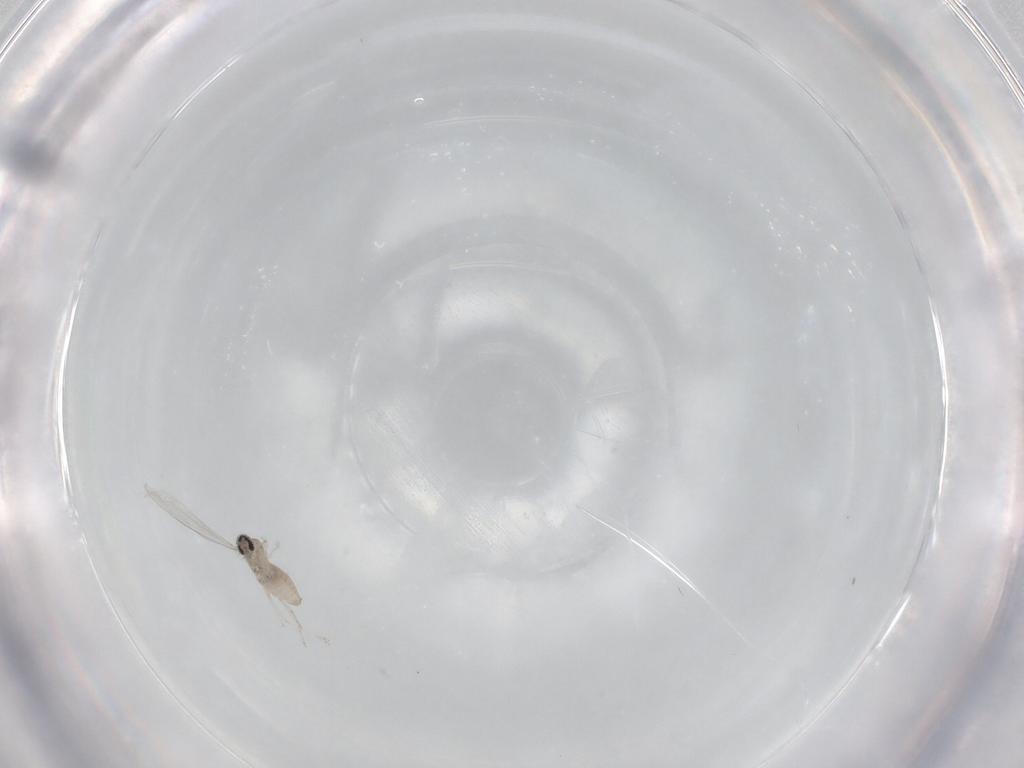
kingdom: Animalia
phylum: Arthropoda
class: Insecta
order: Diptera
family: Cecidomyiidae
